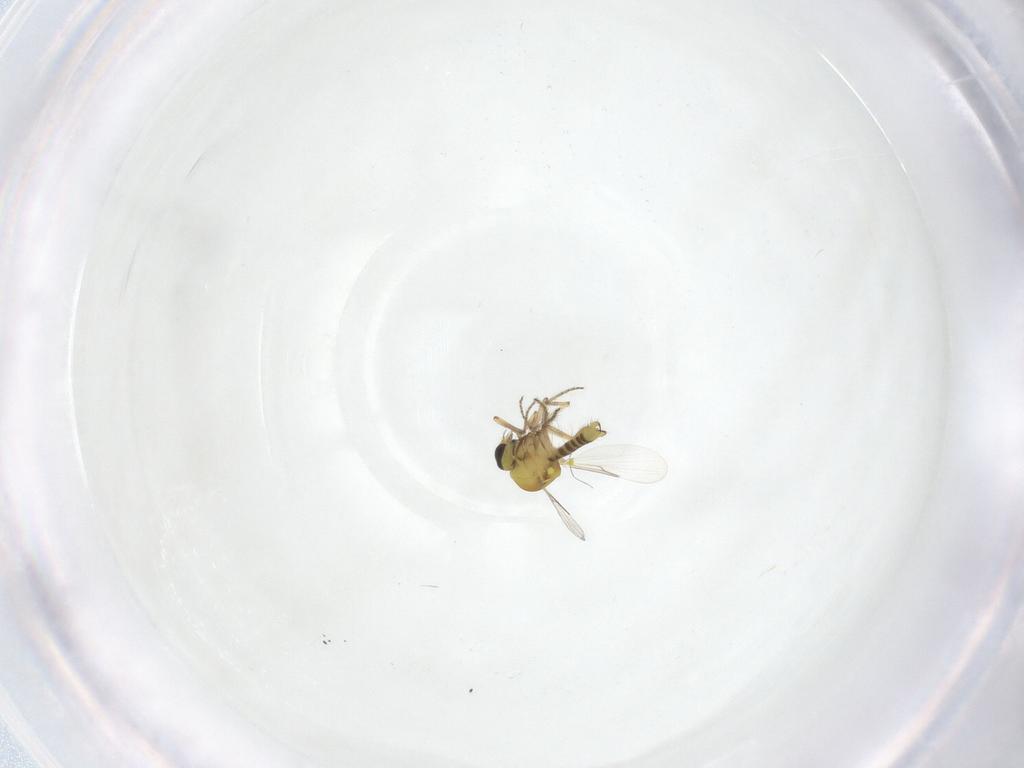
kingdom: Animalia
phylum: Arthropoda
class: Insecta
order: Diptera
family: Ceratopogonidae
